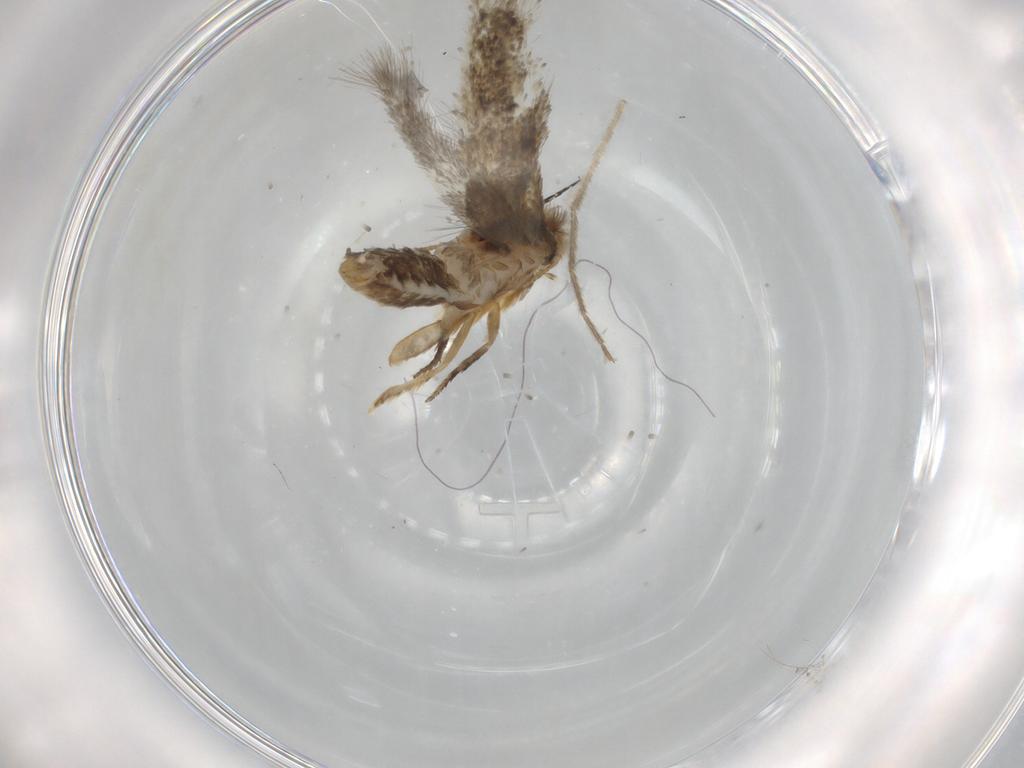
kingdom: Animalia
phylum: Arthropoda
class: Insecta
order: Lepidoptera
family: Nepticulidae
